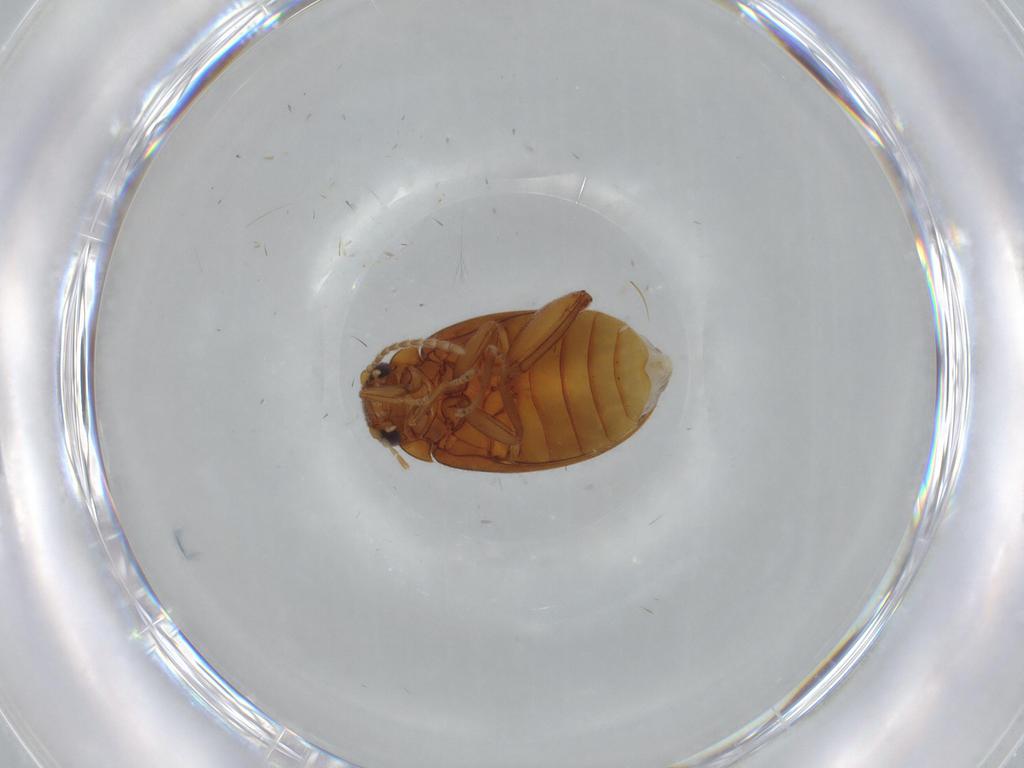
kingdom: Animalia
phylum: Arthropoda
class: Insecta
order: Coleoptera
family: Scirtidae
